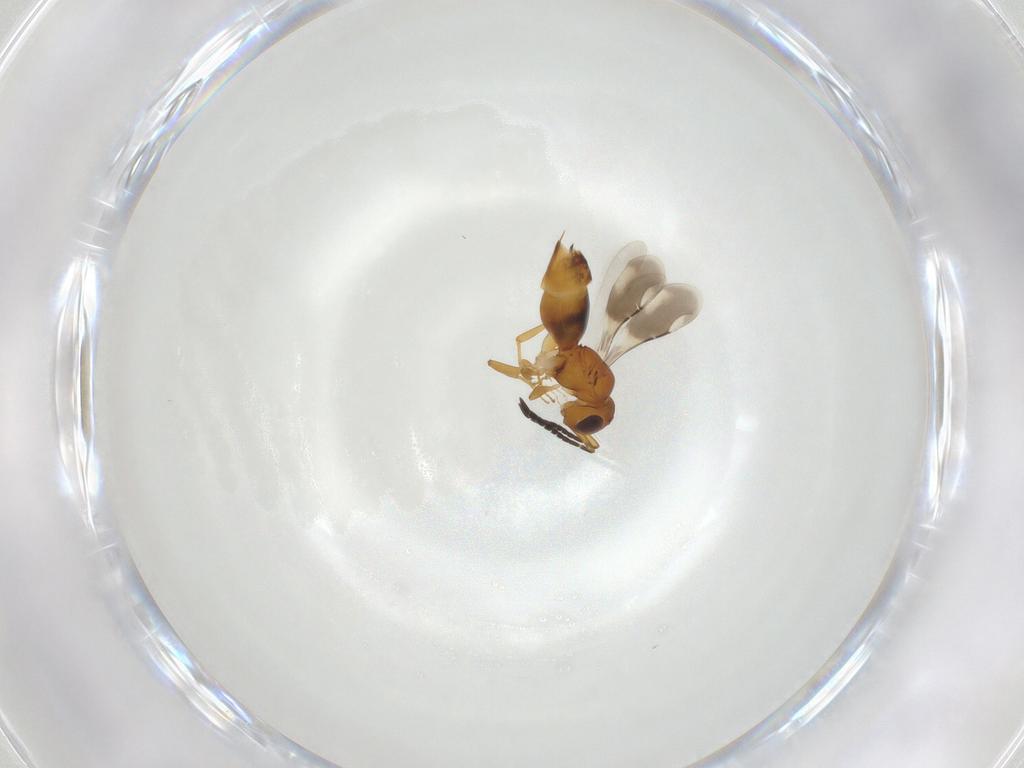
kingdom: Animalia
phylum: Arthropoda
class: Insecta
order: Hymenoptera
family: Ceraphronidae
